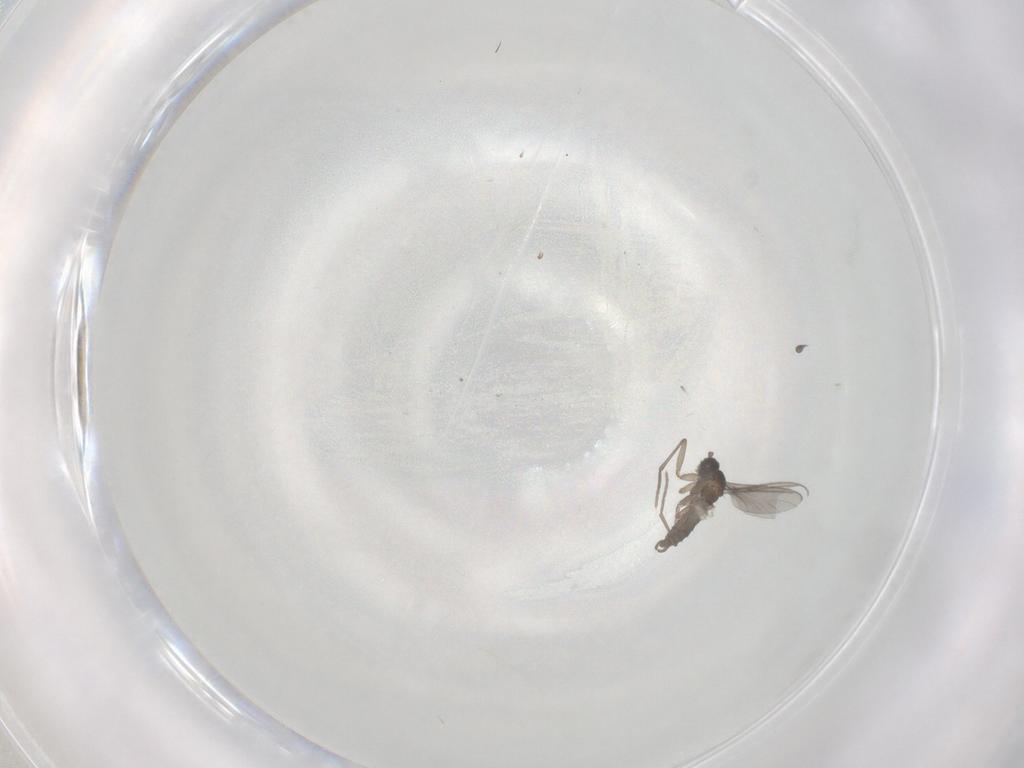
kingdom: Animalia
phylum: Arthropoda
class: Insecta
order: Diptera
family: Sciaridae
